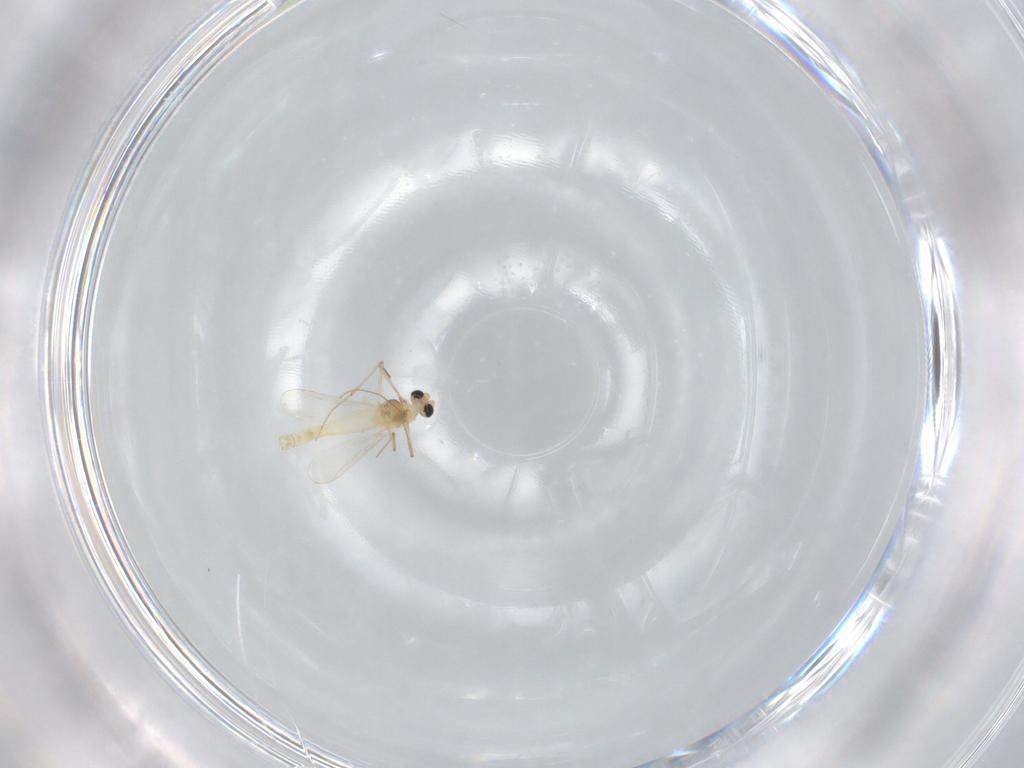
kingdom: Animalia
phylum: Arthropoda
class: Insecta
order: Diptera
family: Chironomidae
